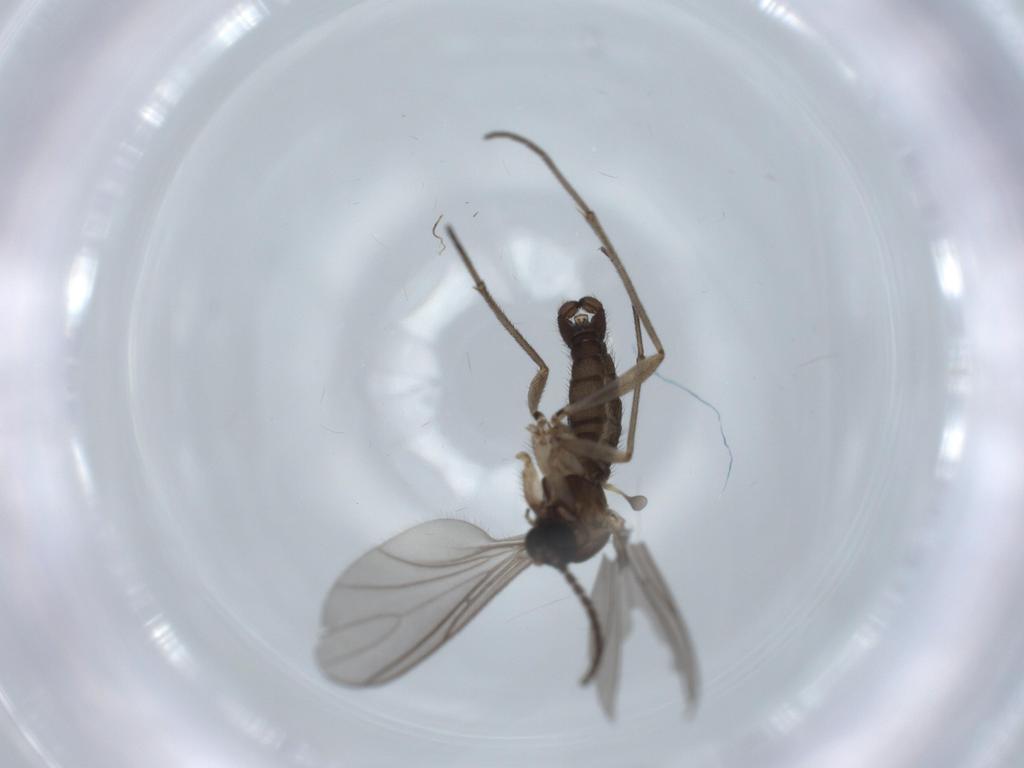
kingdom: Animalia
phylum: Arthropoda
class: Insecta
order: Diptera
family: Sciaridae
